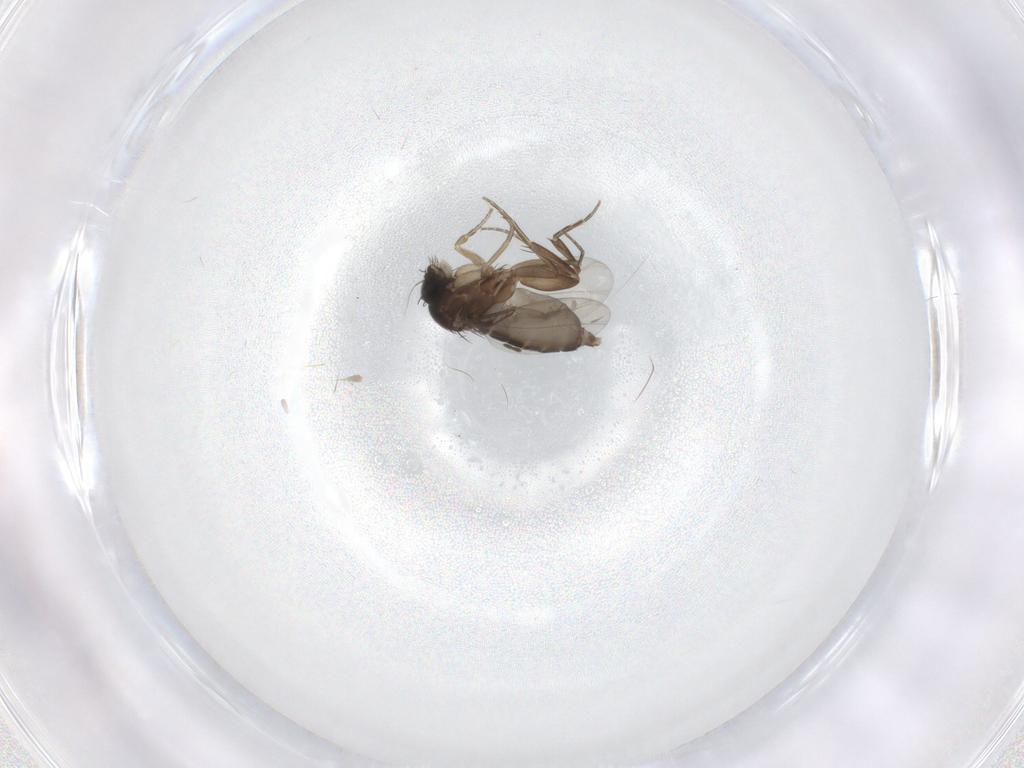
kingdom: Animalia
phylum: Arthropoda
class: Insecta
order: Diptera
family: Phoridae
